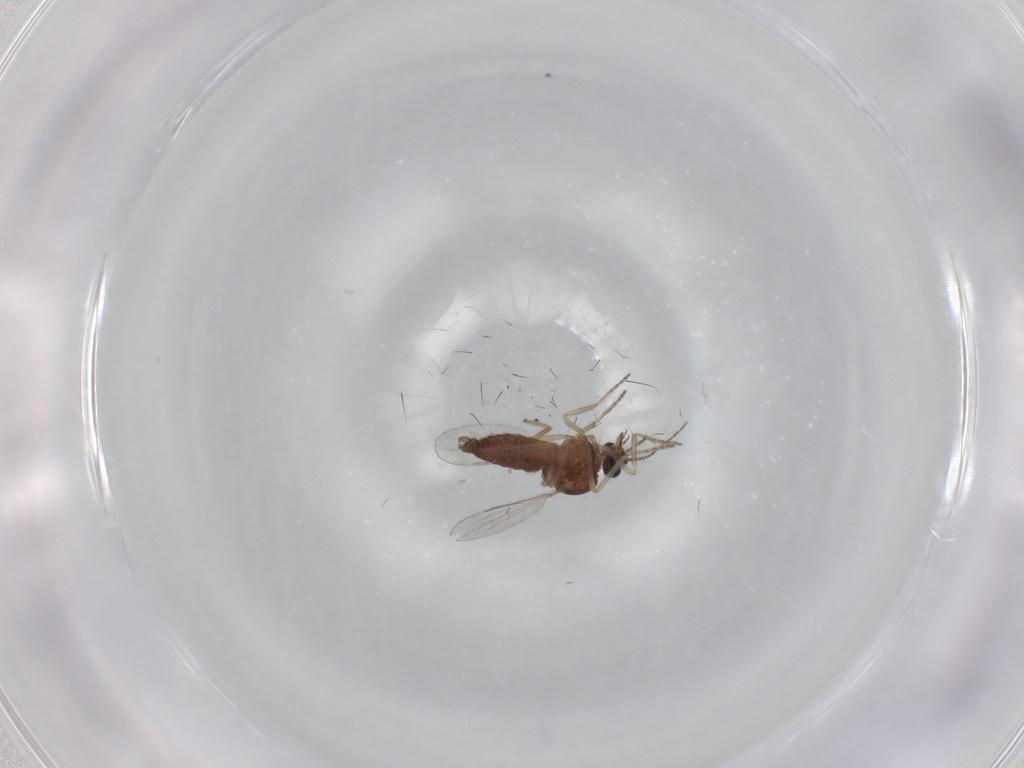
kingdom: Animalia
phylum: Arthropoda
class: Insecta
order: Diptera
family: Ceratopogonidae
